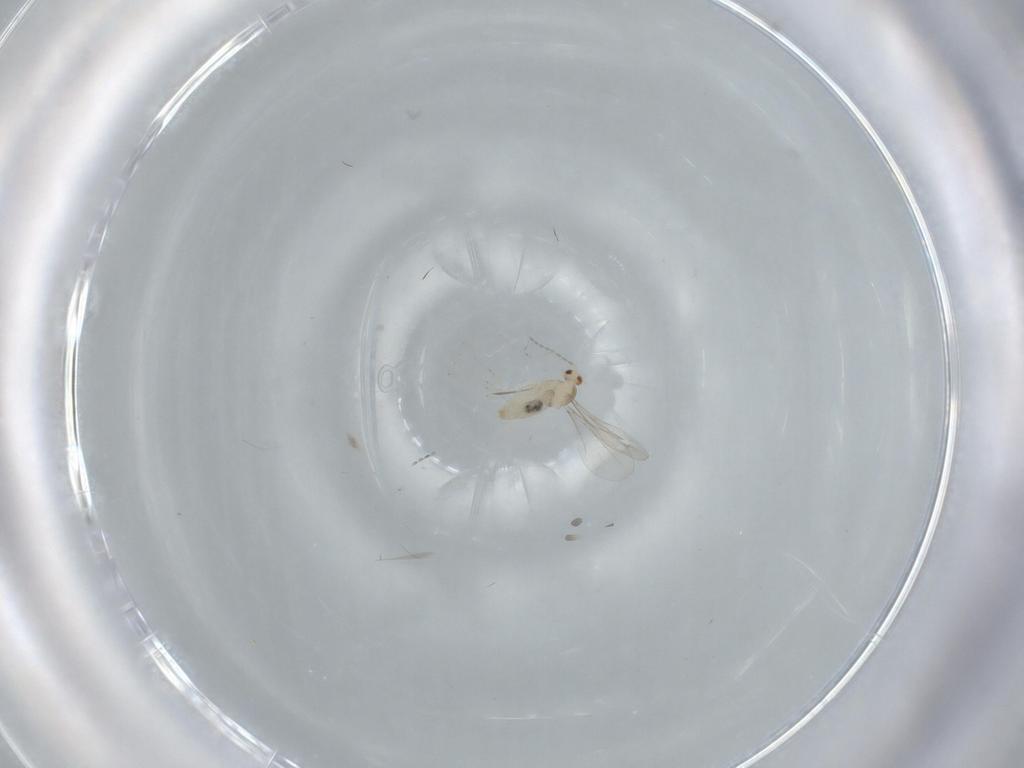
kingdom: Animalia
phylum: Arthropoda
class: Insecta
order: Diptera
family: Cecidomyiidae
